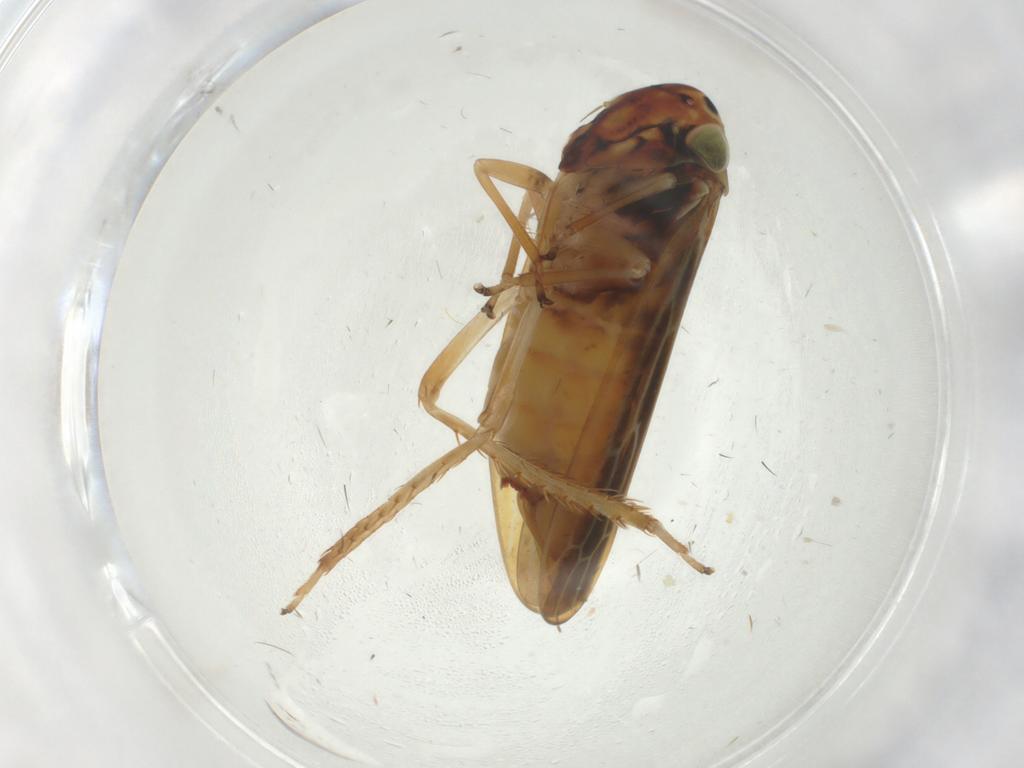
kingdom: Animalia
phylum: Arthropoda
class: Insecta
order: Hemiptera
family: Cicadellidae
